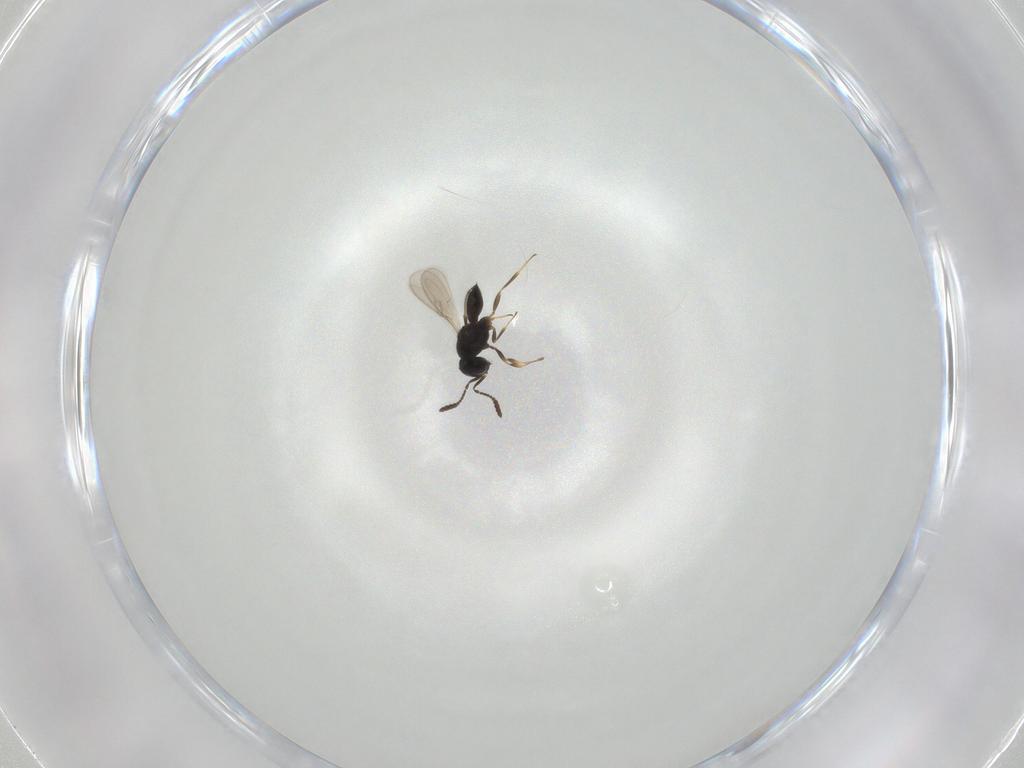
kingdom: Animalia
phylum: Arthropoda
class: Insecta
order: Hymenoptera
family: Scelionidae
